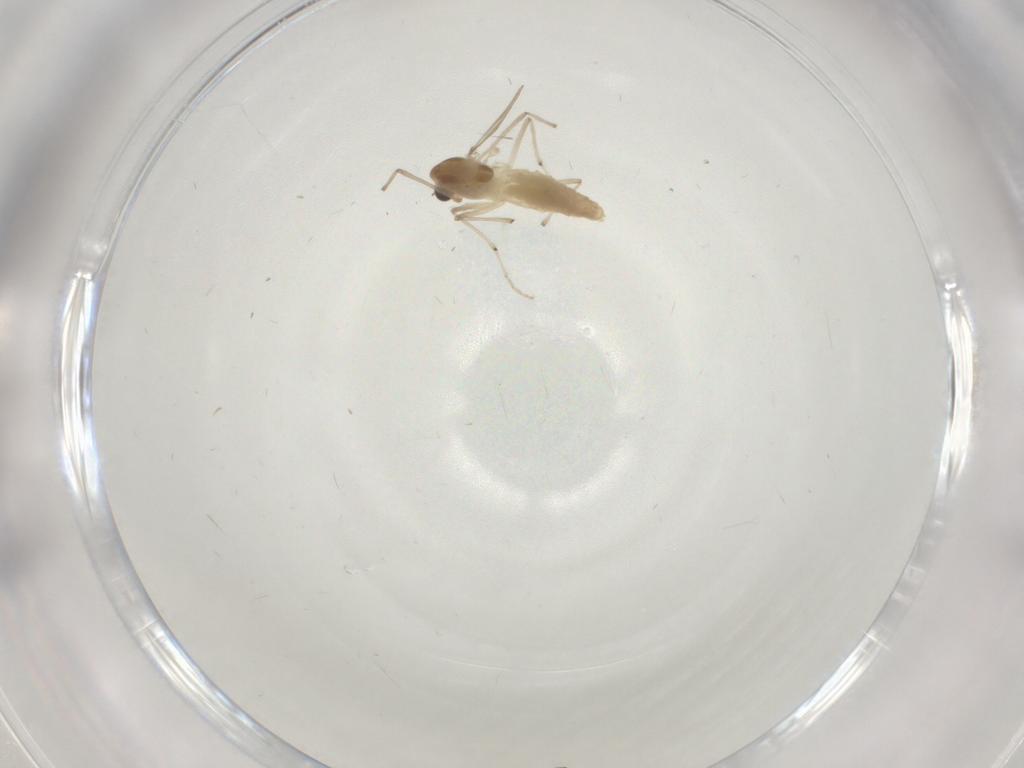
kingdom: Animalia
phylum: Arthropoda
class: Insecta
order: Diptera
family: Chironomidae
